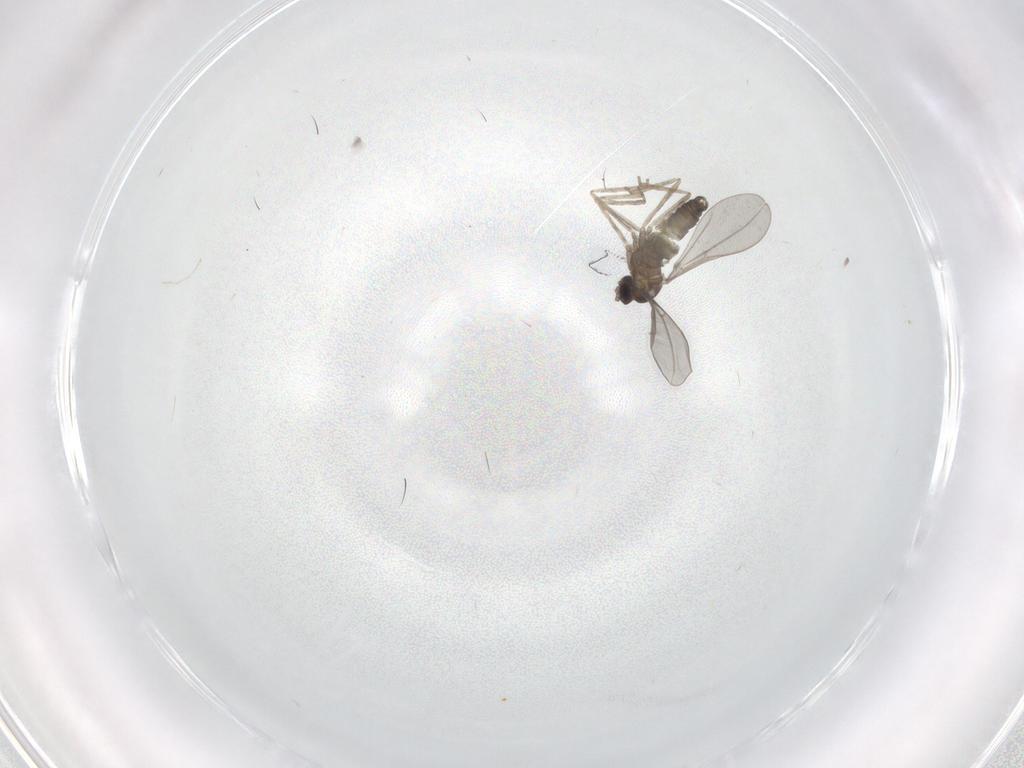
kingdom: Animalia
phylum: Arthropoda
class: Insecta
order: Diptera
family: Cecidomyiidae
